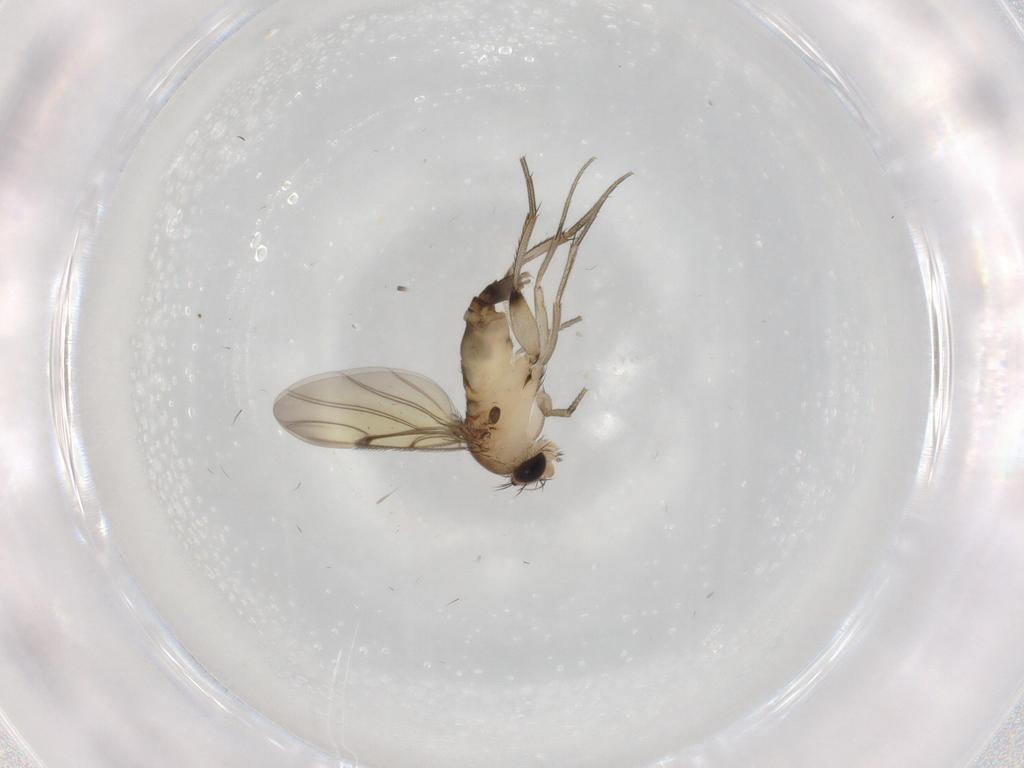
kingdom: Animalia
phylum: Arthropoda
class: Insecta
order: Diptera
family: Phoridae
